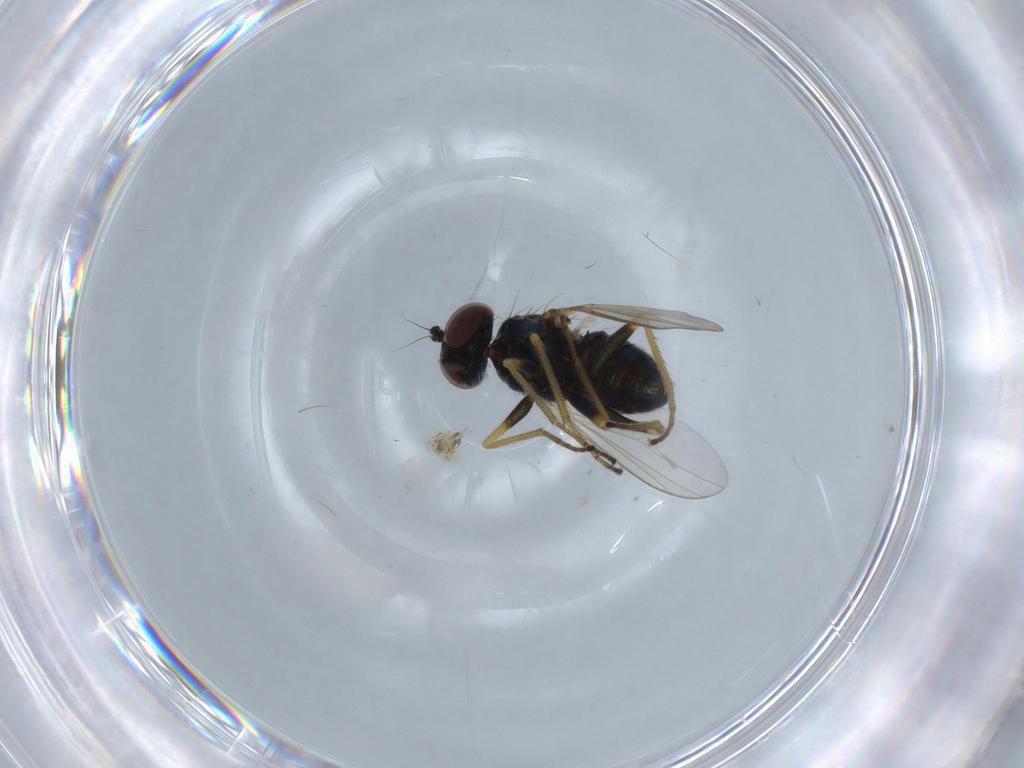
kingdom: Animalia
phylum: Arthropoda
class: Insecta
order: Diptera
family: Dolichopodidae
